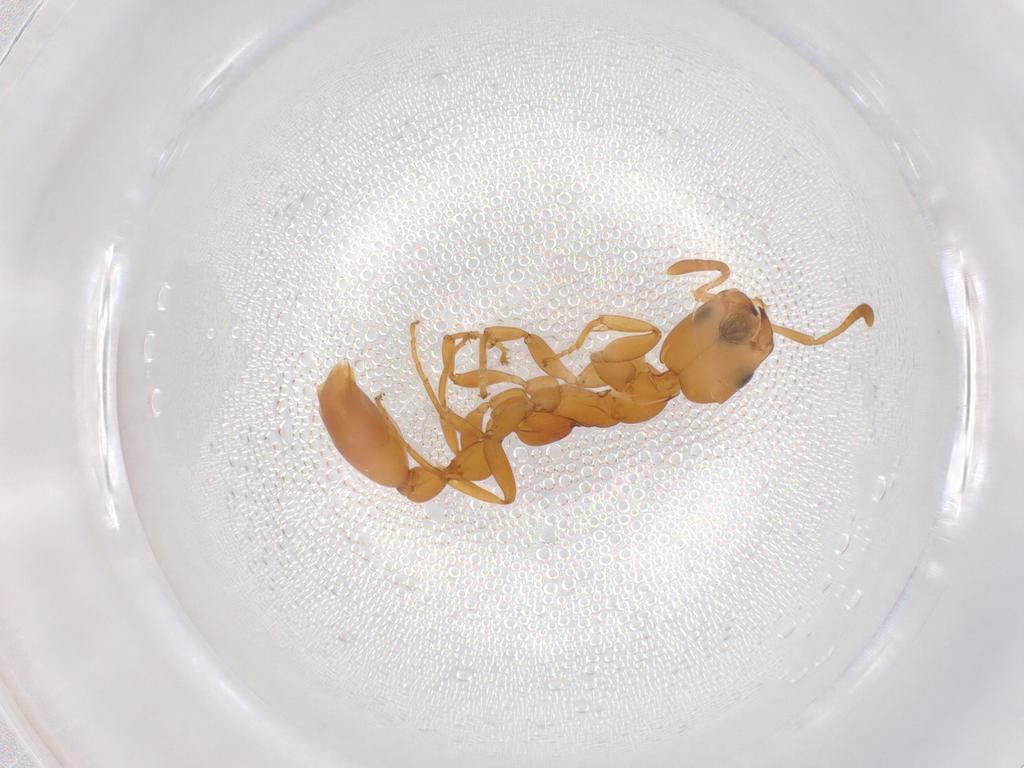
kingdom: Animalia
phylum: Arthropoda
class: Insecta
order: Hymenoptera
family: Formicidae
